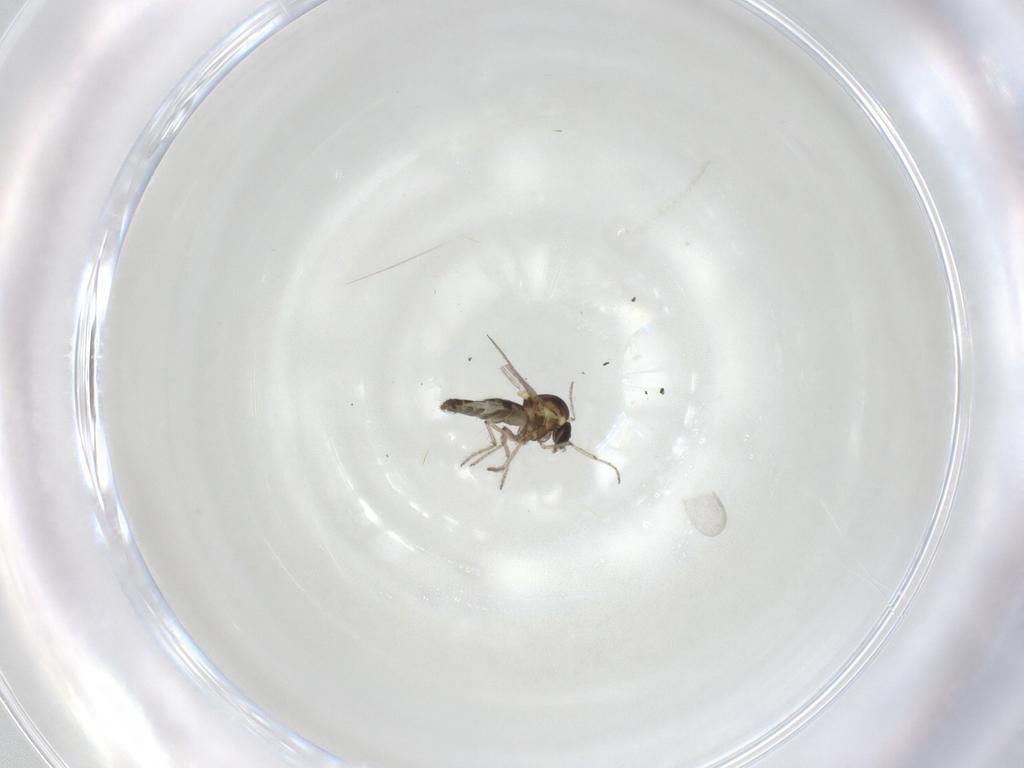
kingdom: Animalia
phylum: Arthropoda
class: Insecta
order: Diptera
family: Ceratopogonidae
